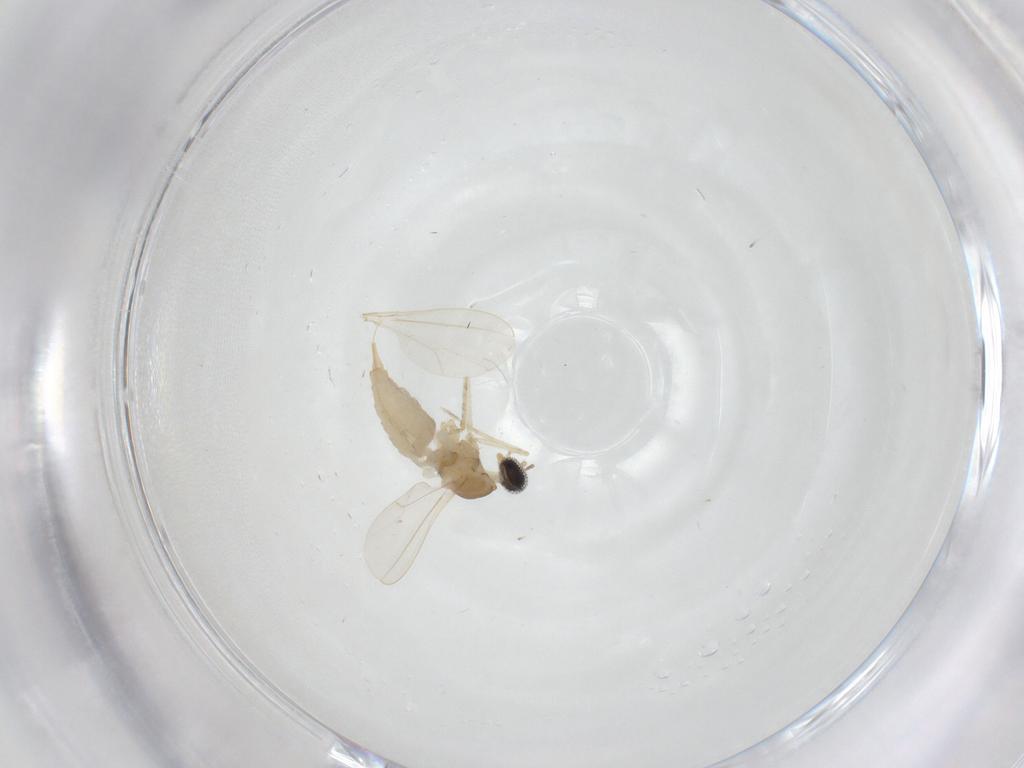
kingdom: Animalia
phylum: Arthropoda
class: Insecta
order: Diptera
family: Cecidomyiidae
